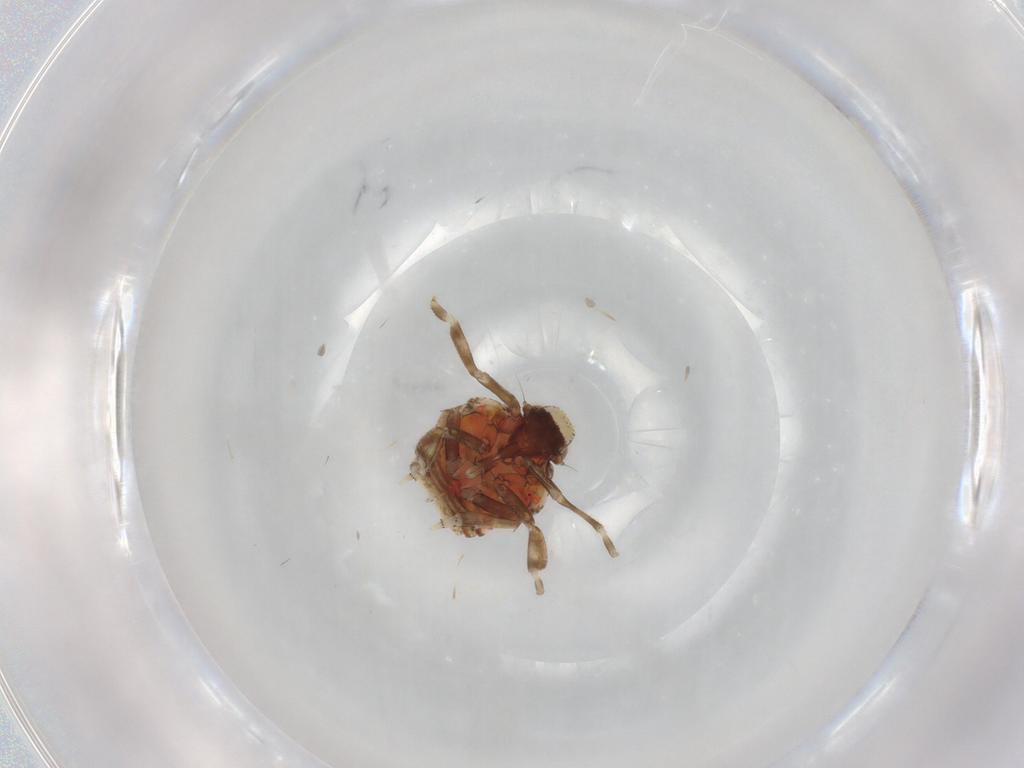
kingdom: Animalia
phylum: Arthropoda
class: Insecta
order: Hemiptera
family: Issidae
